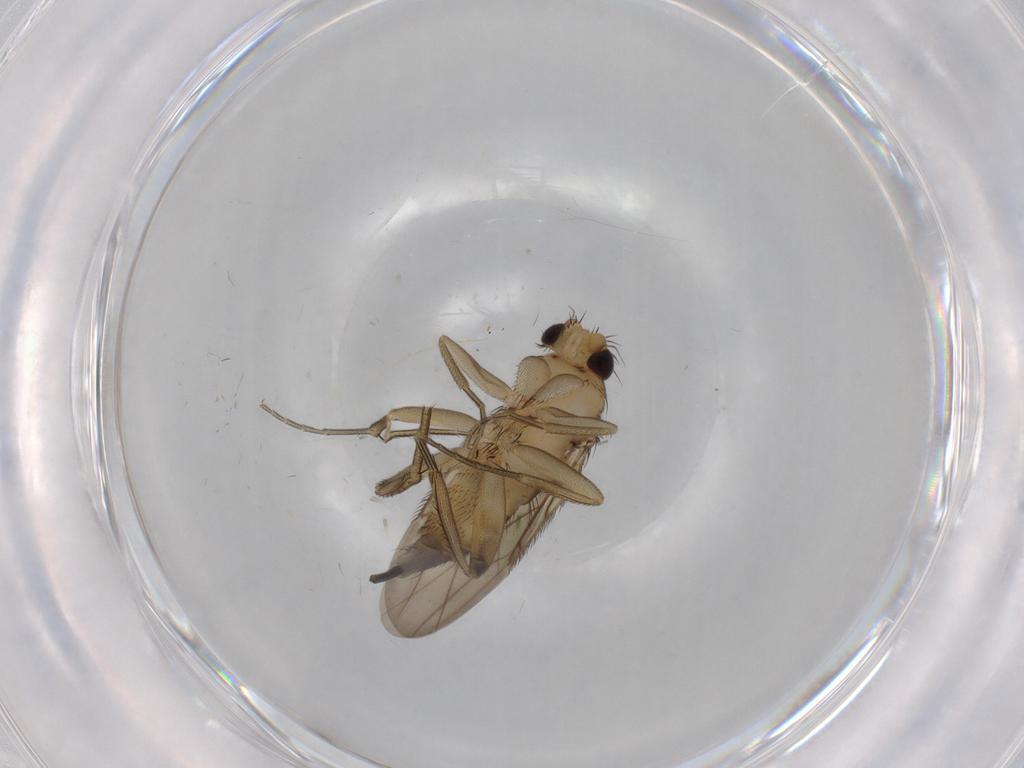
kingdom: Animalia
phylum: Arthropoda
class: Insecta
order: Diptera
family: Phoridae
